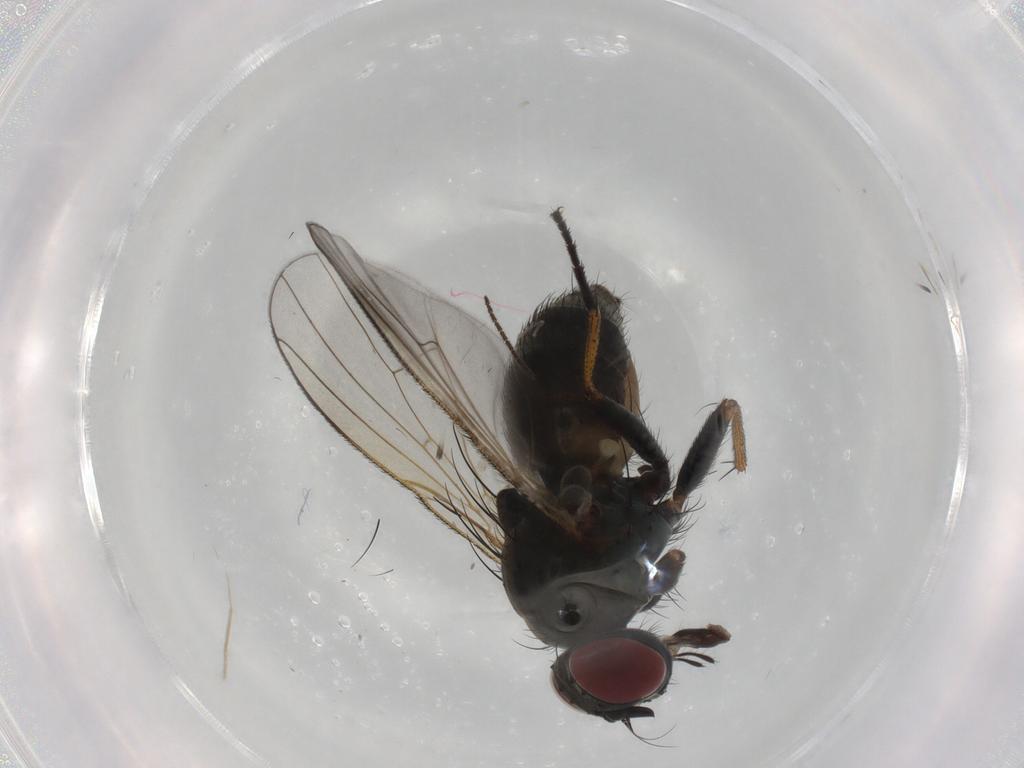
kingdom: Animalia
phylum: Arthropoda
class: Insecta
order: Diptera
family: Muscidae
